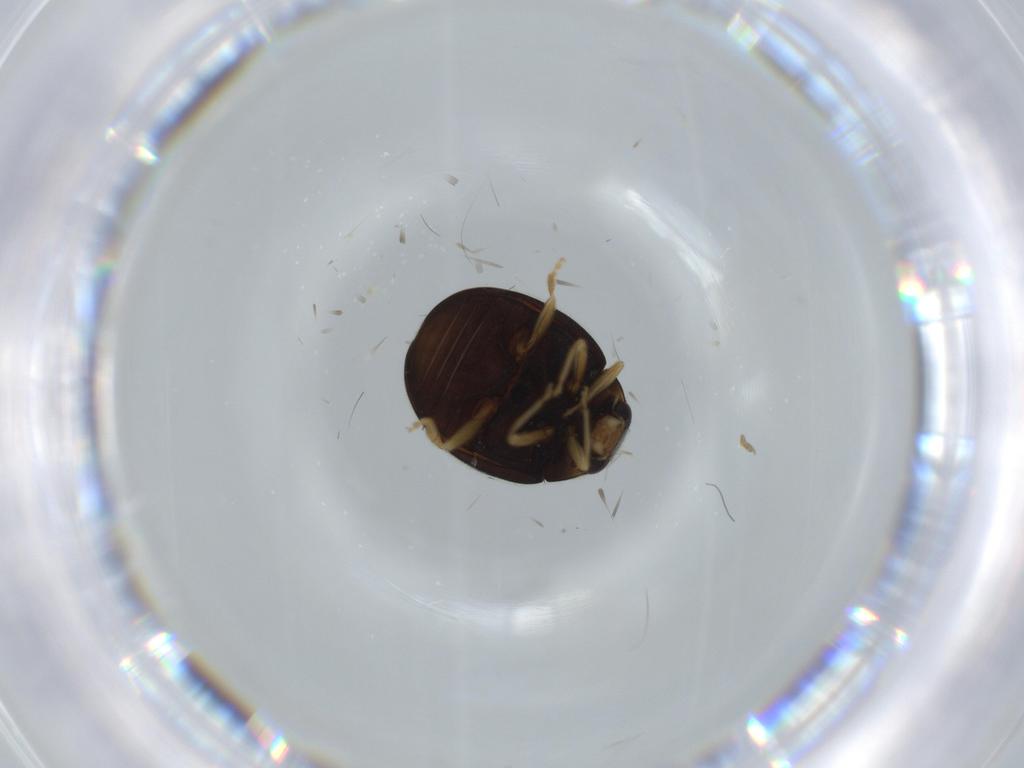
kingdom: Animalia
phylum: Arthropoda
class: Insecta
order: Coleoptera
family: Coccinellidae
